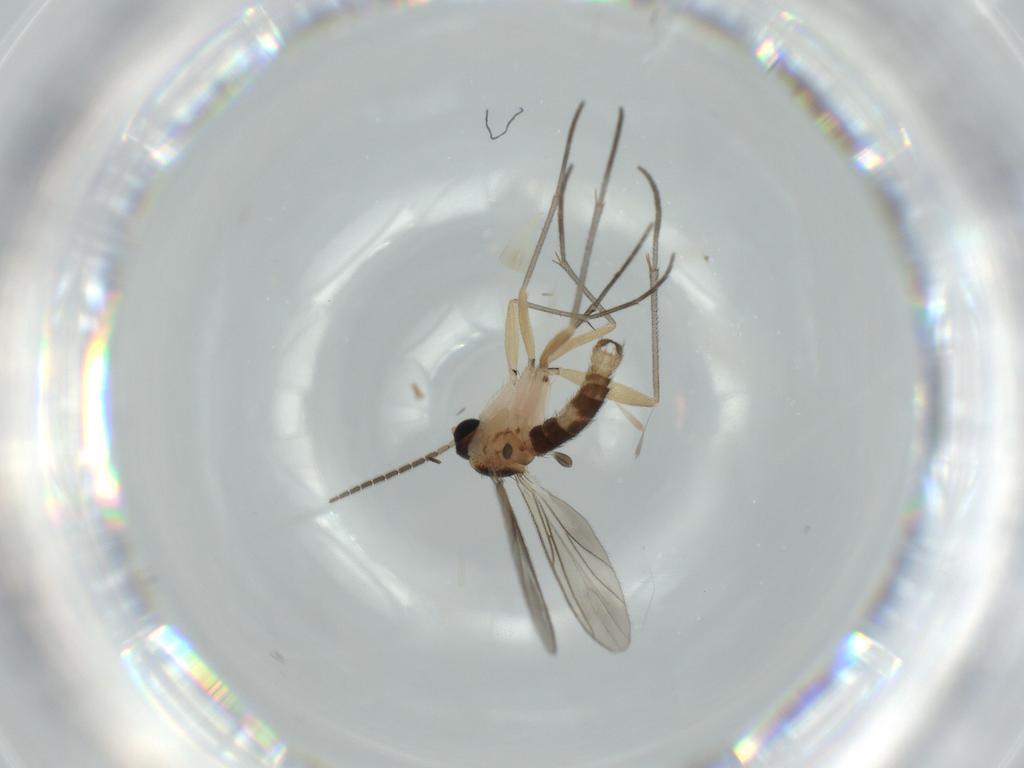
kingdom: Animalia
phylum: Arthropoda
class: Insecta
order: Diptera
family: Sciaridae
